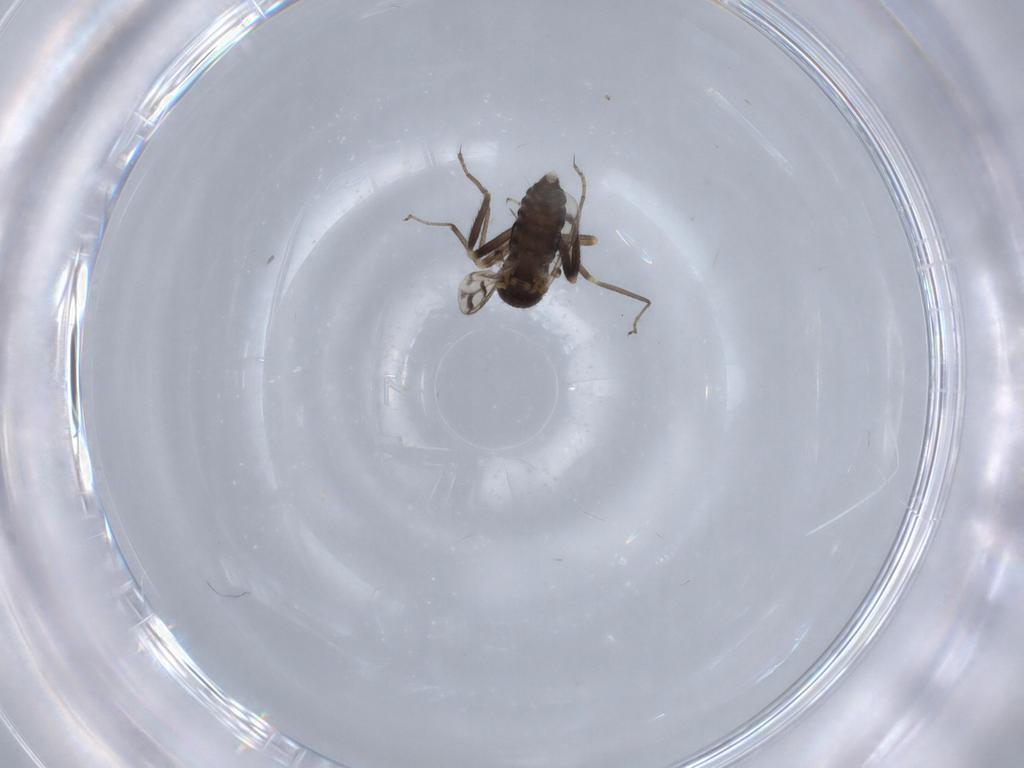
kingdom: Animalia
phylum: Arthropoda
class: Insecta
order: Diptera
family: Ceratopogonidae
